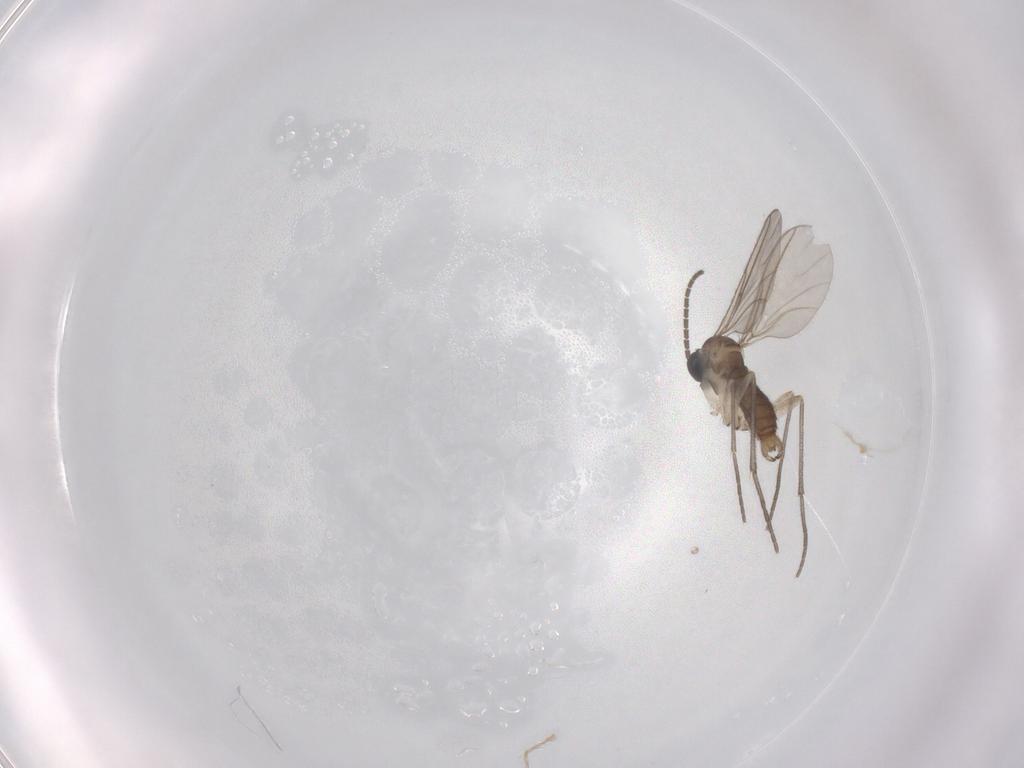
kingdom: Animalia
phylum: Arthropoda
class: Insecta
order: Diptera
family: Sciaridae
